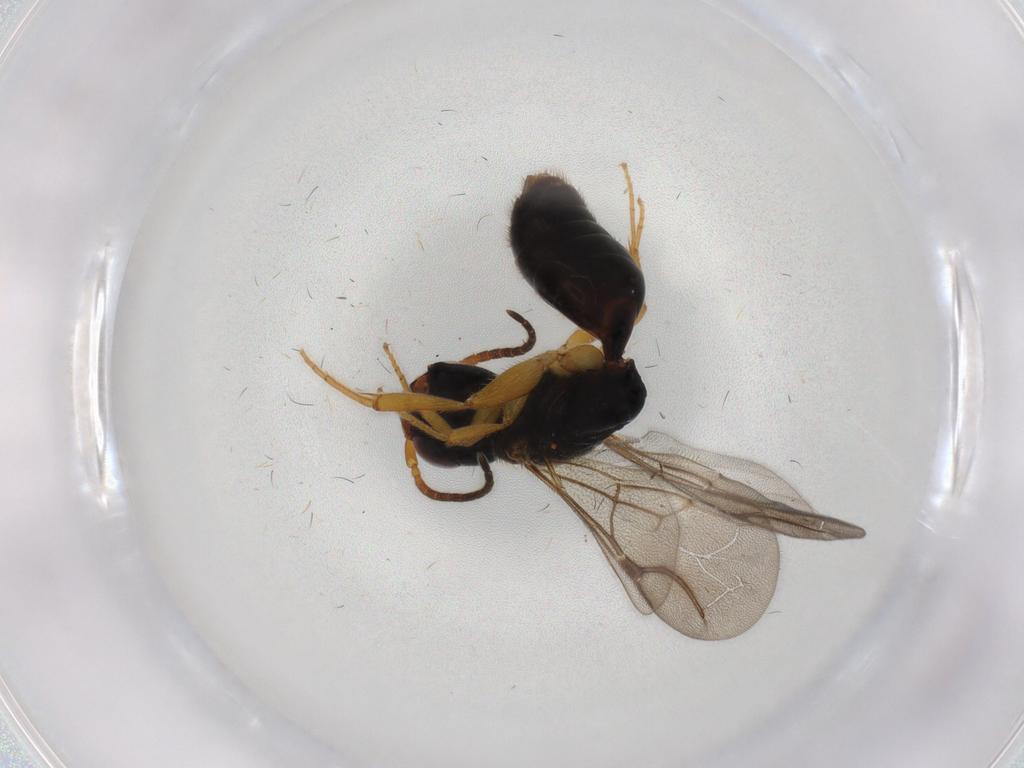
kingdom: Animalia
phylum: Arthropoda
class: Insecta
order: Hymenoptera
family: Bethylidae
